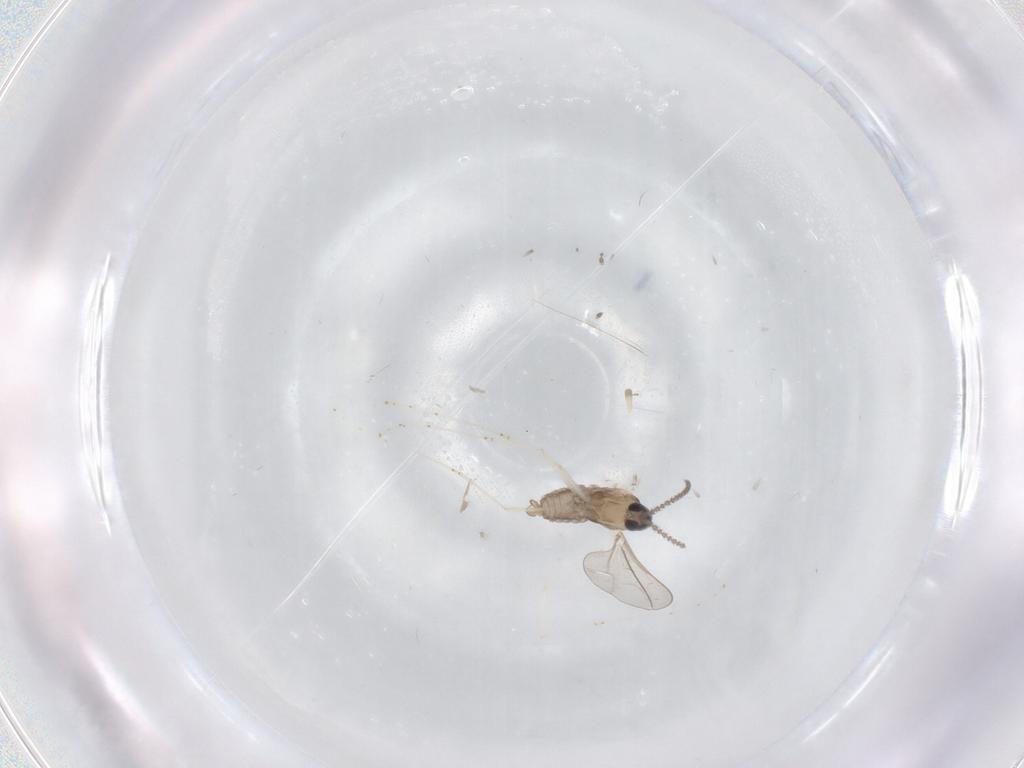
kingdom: Animalia
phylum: Arthropoda
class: Insecta
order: Diptera
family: Cecidomyiidae
